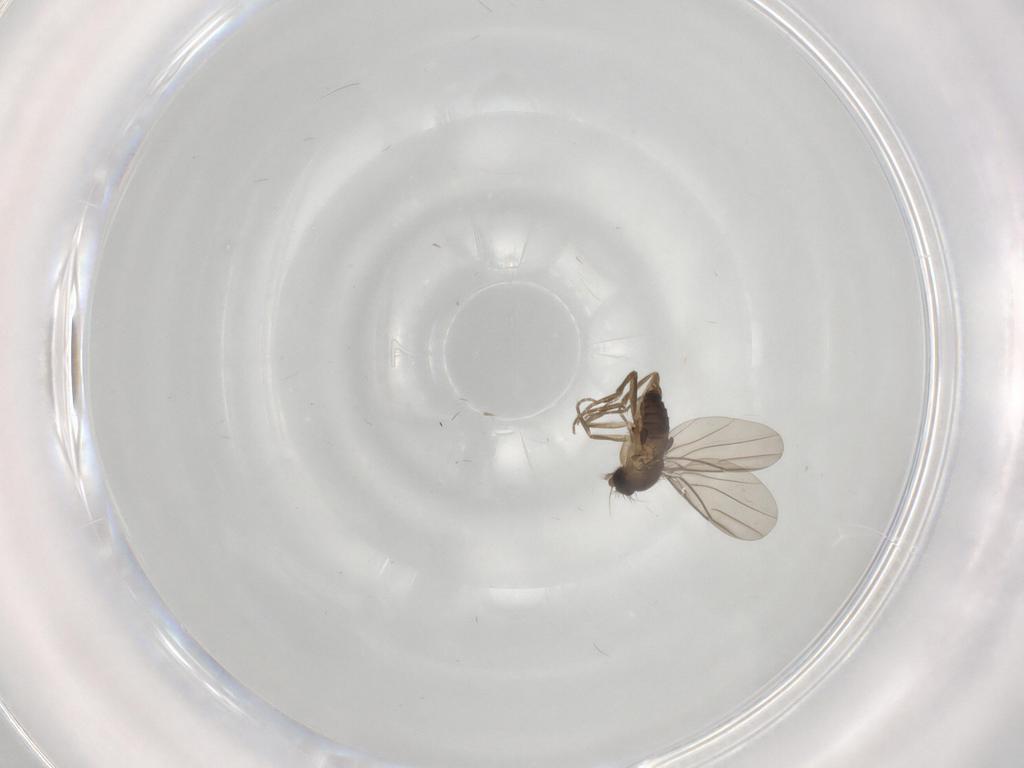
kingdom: Animalia
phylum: Arthropoda
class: Insecta
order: Diptera
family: Phoridae
